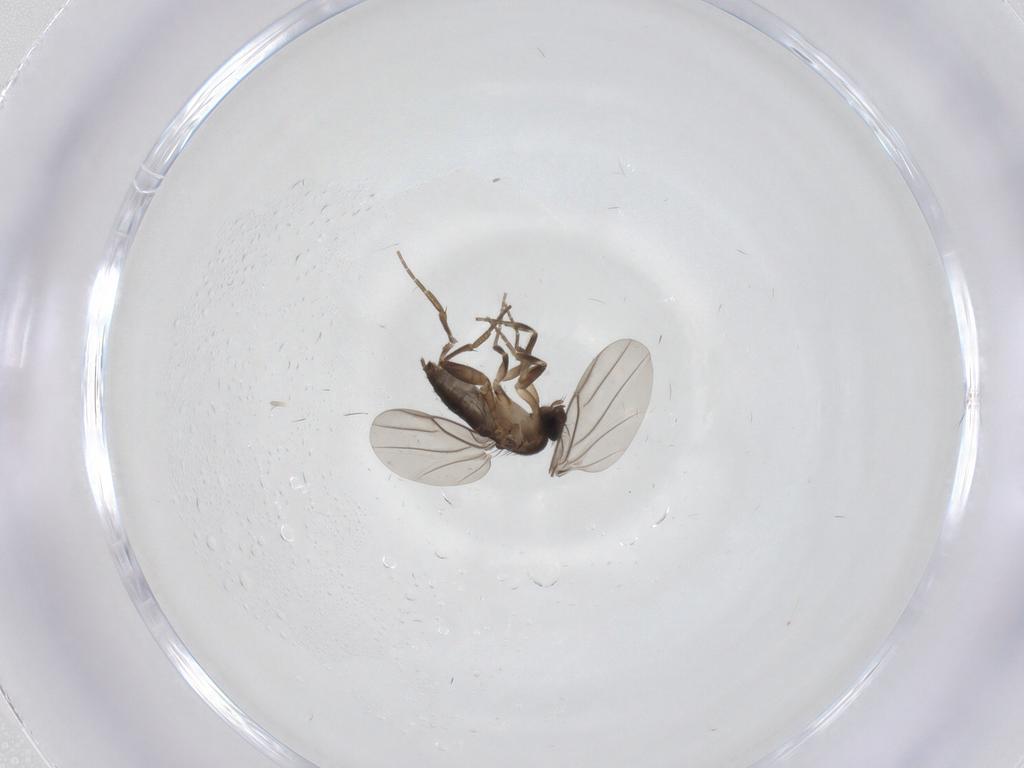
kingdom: Animalia
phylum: Arthropoda
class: Insecta
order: Diptera
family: Ceratopogonidae
